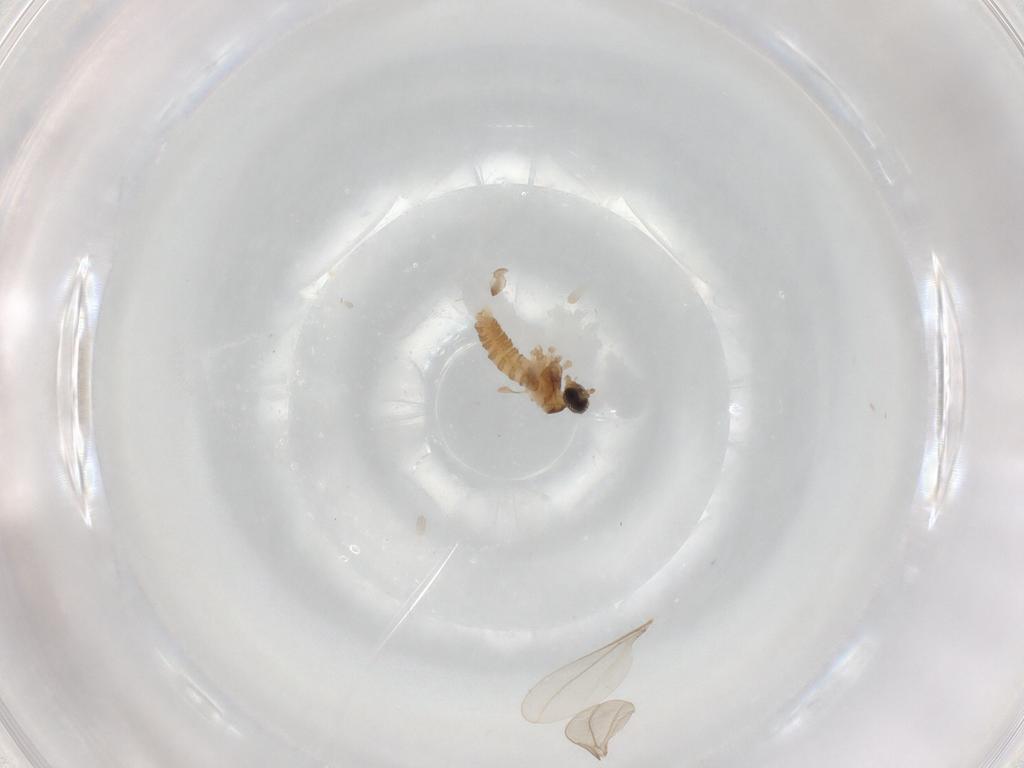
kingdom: Animalia
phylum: Arthropoda
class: Insecta
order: Diptera
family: Cecidomyiidae
